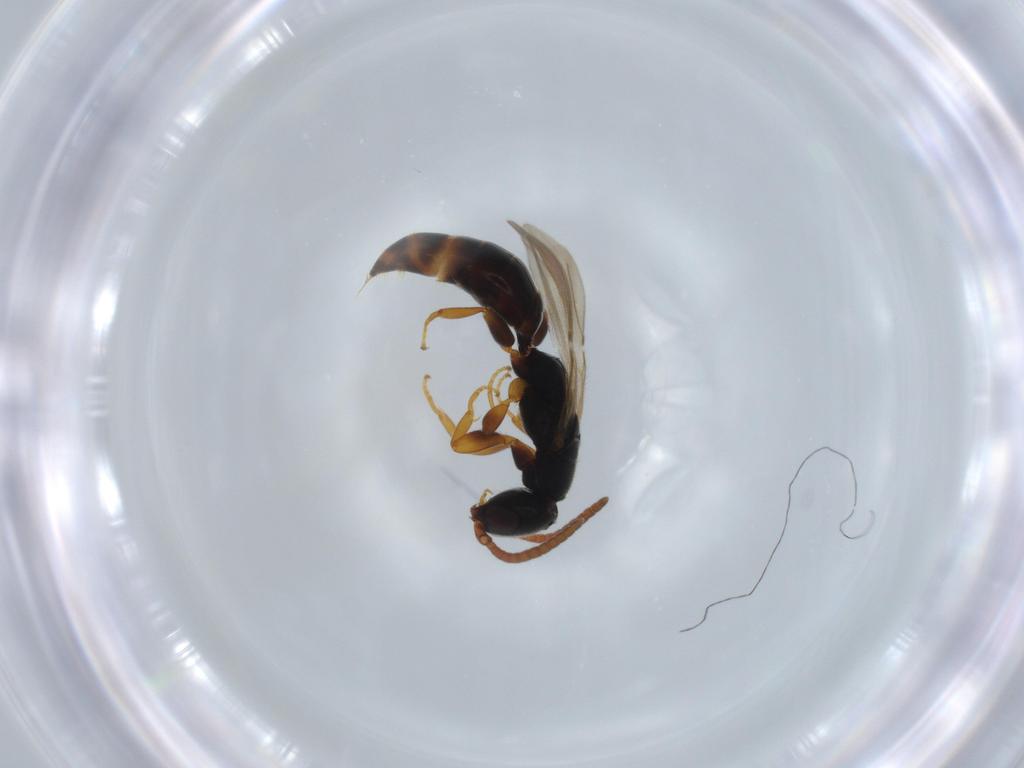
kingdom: Animalia
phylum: Arthropoda
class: Insecta
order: Hymenoptera
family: Bethylidae
